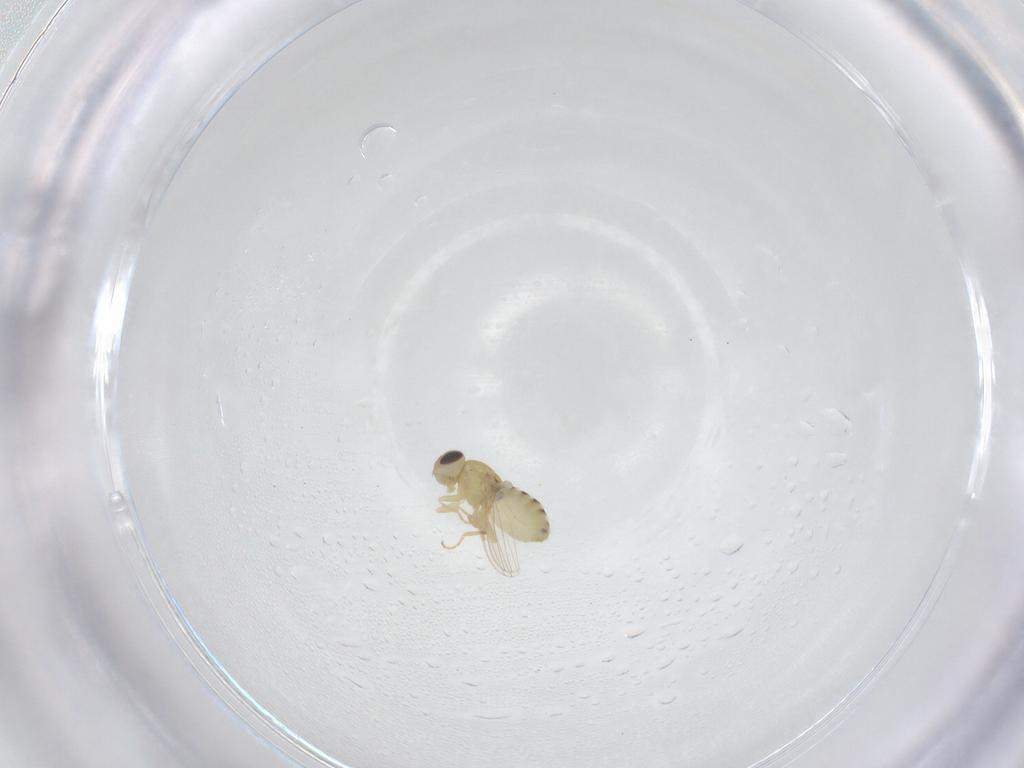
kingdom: Animalia
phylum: Arthropoda
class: Insecta
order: Diptera
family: Chloropidae
